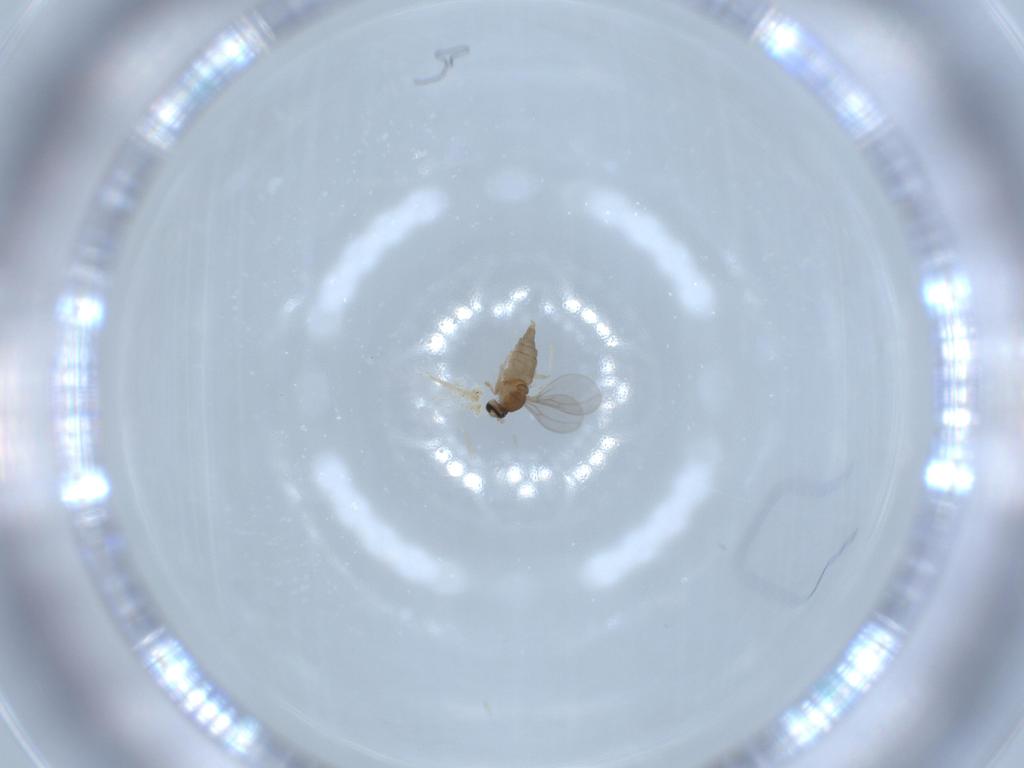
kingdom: Animalia
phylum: Arthropoda
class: Insecta
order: Diptera
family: Cecidomyiidae
